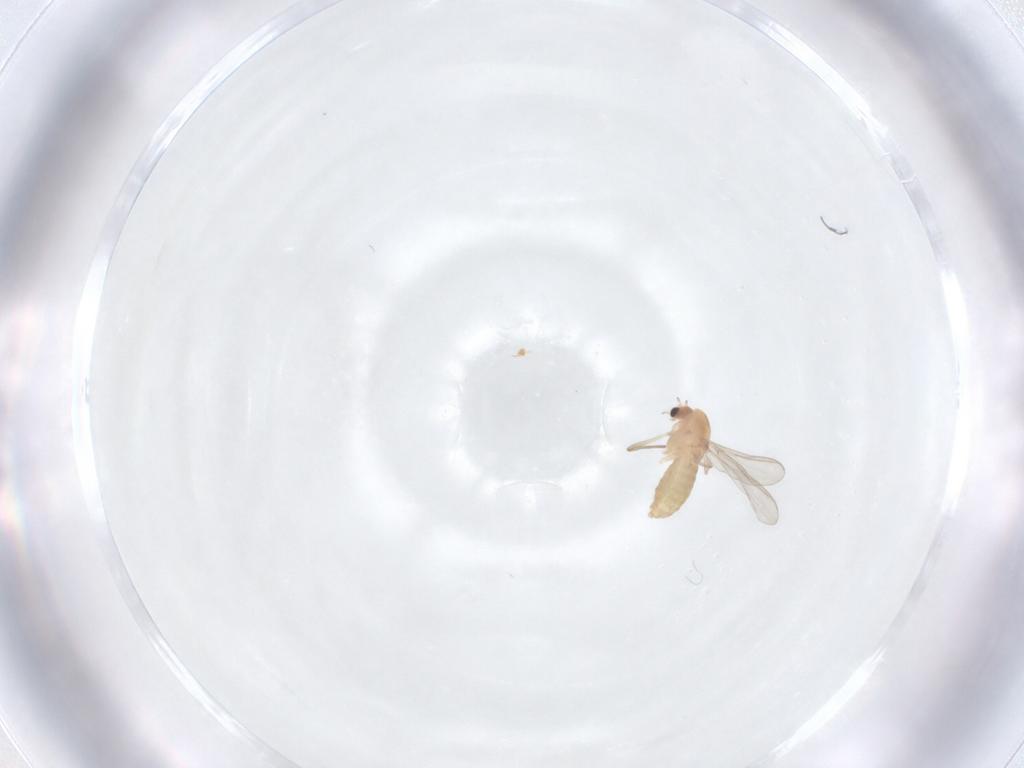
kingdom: Animalia
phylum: Arthropoda
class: Insecta
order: Diptera
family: Chironomidae
